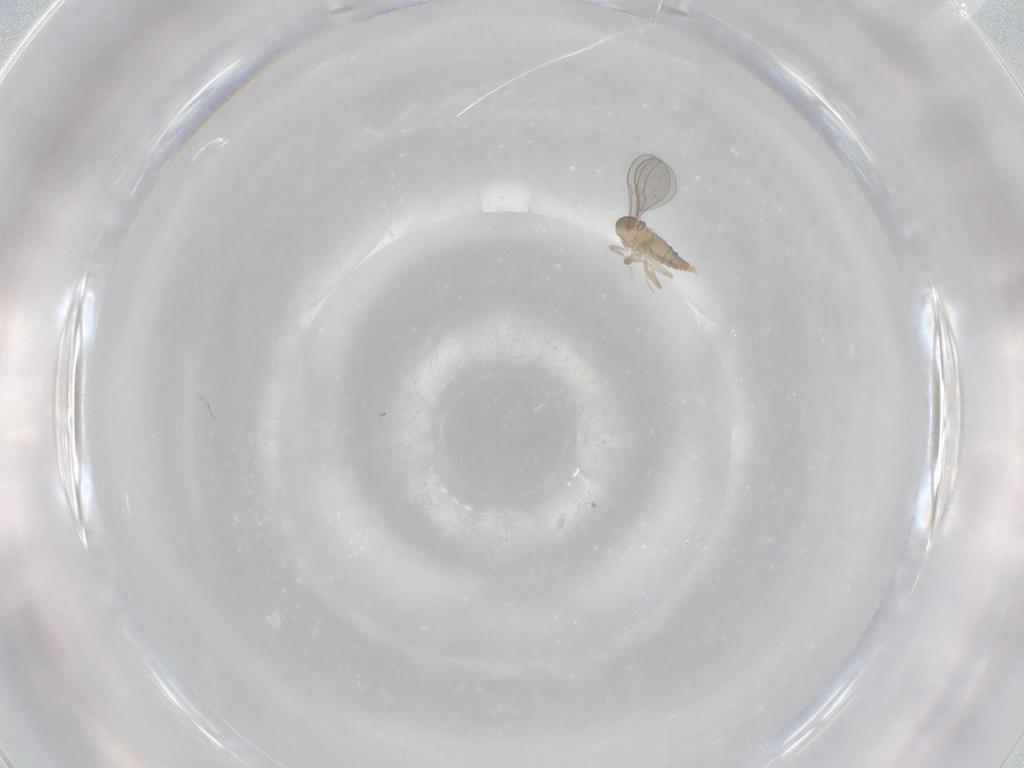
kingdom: Animalia
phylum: Arthropoda
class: Insecta
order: Diptera
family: Cecidomyiidae
